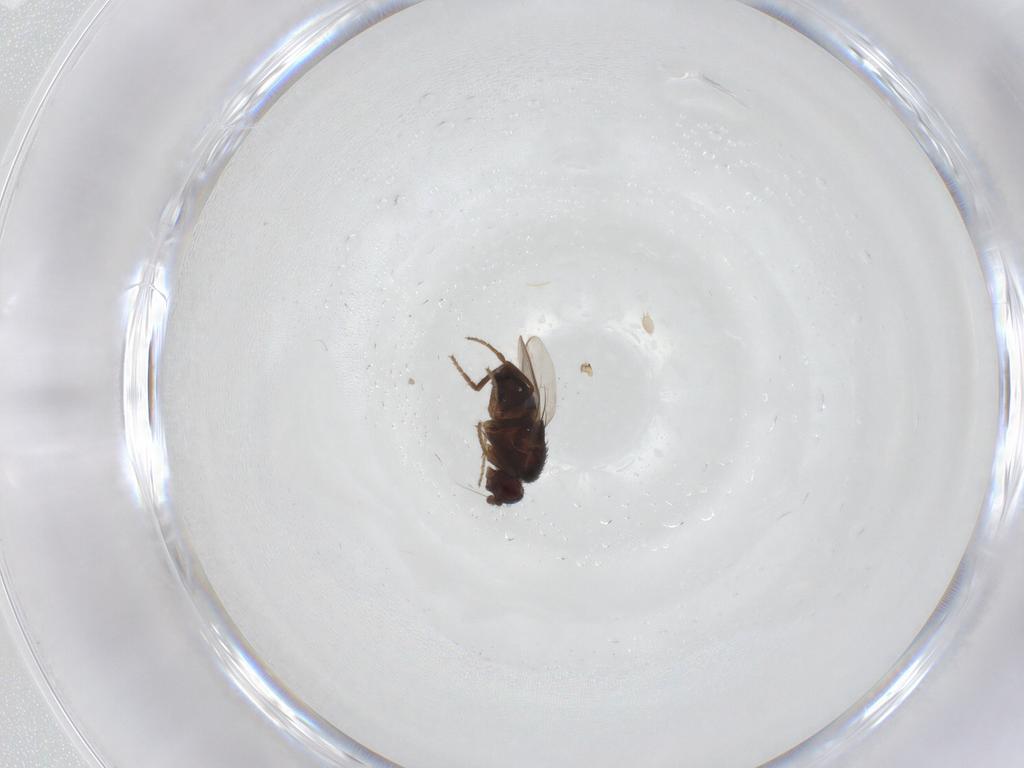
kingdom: Animalia
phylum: Arthropoda
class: Insecta
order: Diptera
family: Sphaeroceridae
